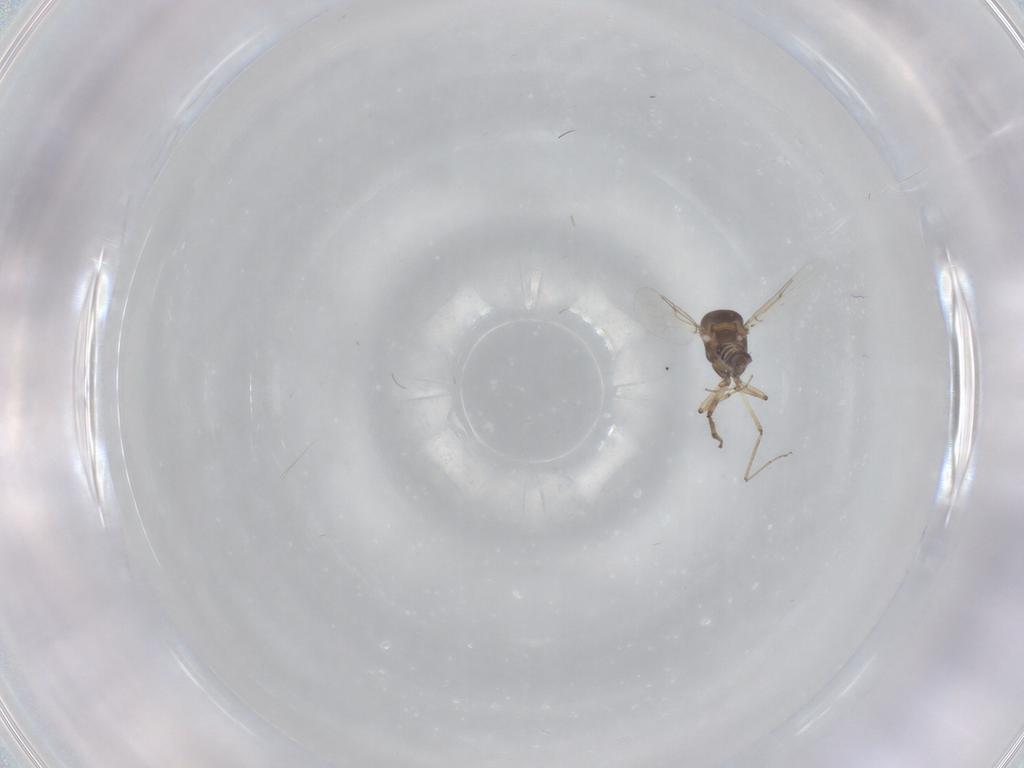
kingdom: Animalia
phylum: Arthropoda
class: Insecta
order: Diptera
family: Ceratopogonidae
